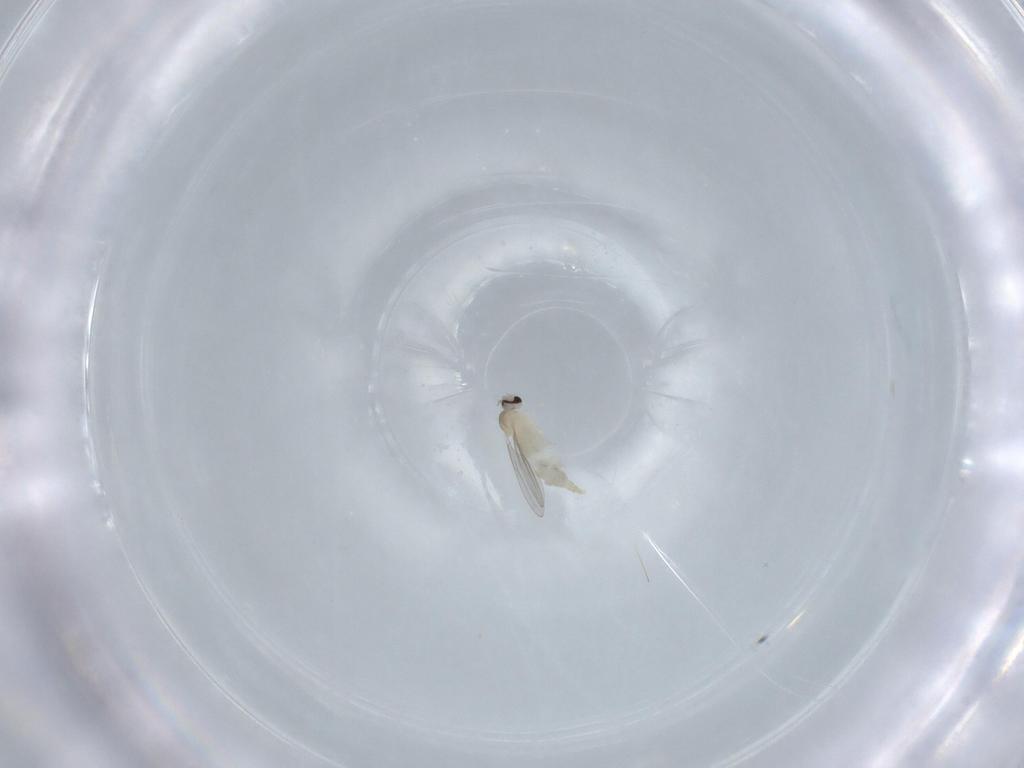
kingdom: Animalia
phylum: Arthropoda
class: Insecta
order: Diptera
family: Cecidomyiidae
